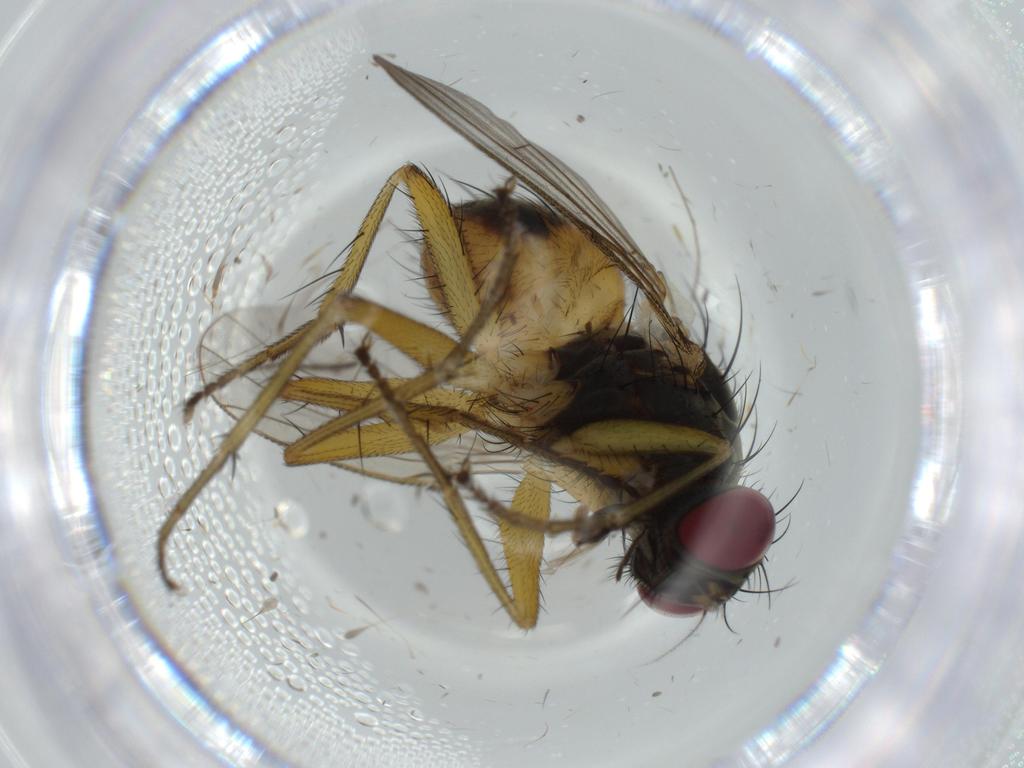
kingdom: Animalia
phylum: Arthropoda
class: Insecta
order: Diptera
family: Muscidae
